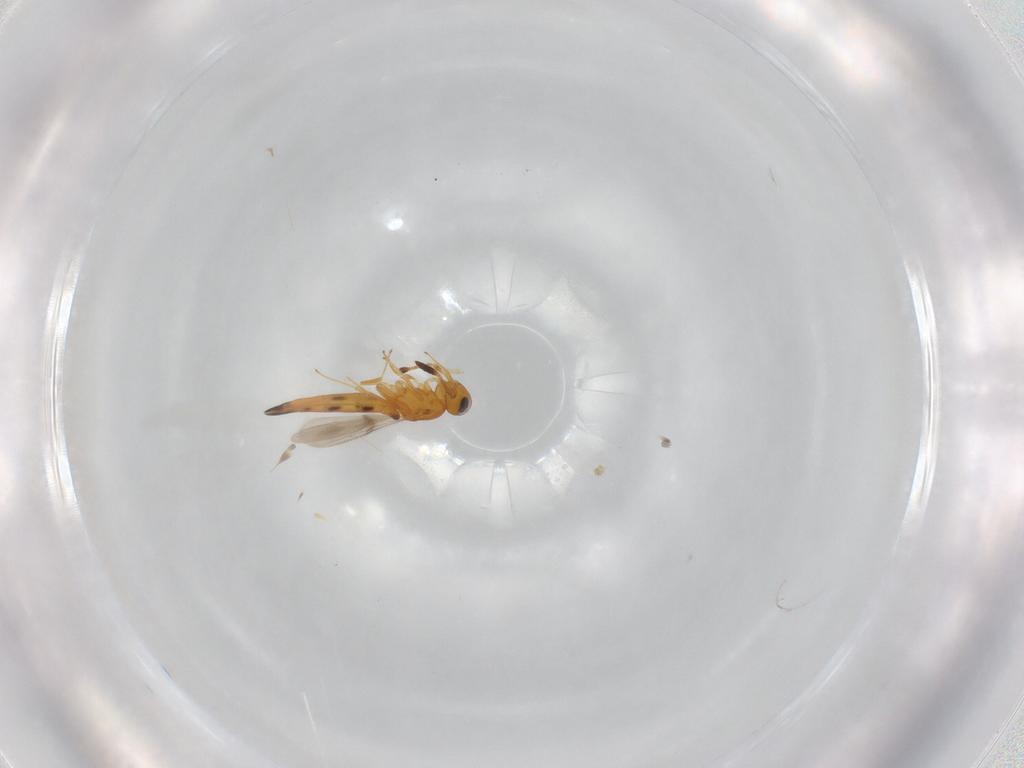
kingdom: Animalia
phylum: Arthropoda
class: Insecta
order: Hymenoptera
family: Scelionidae
